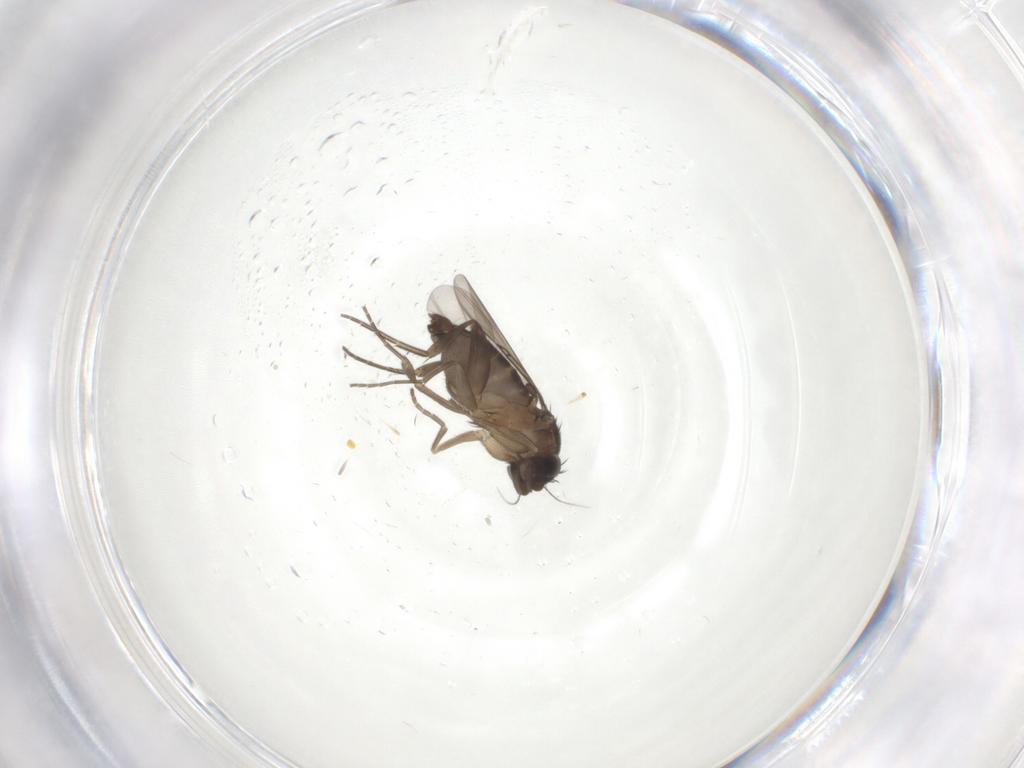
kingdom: Animalia
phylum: Arthropoda
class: Insecta
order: Diptera
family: Phoridae
